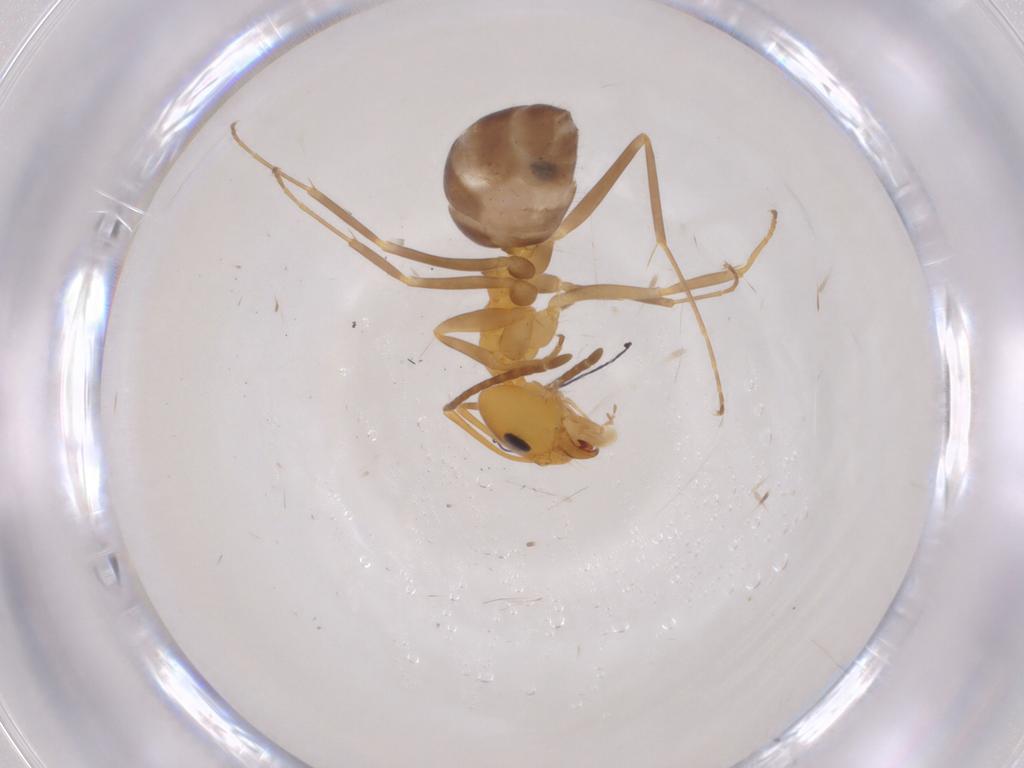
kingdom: Animalia
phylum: Arthropoda
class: Insecta
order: Hymenoptera
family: Formicidae
